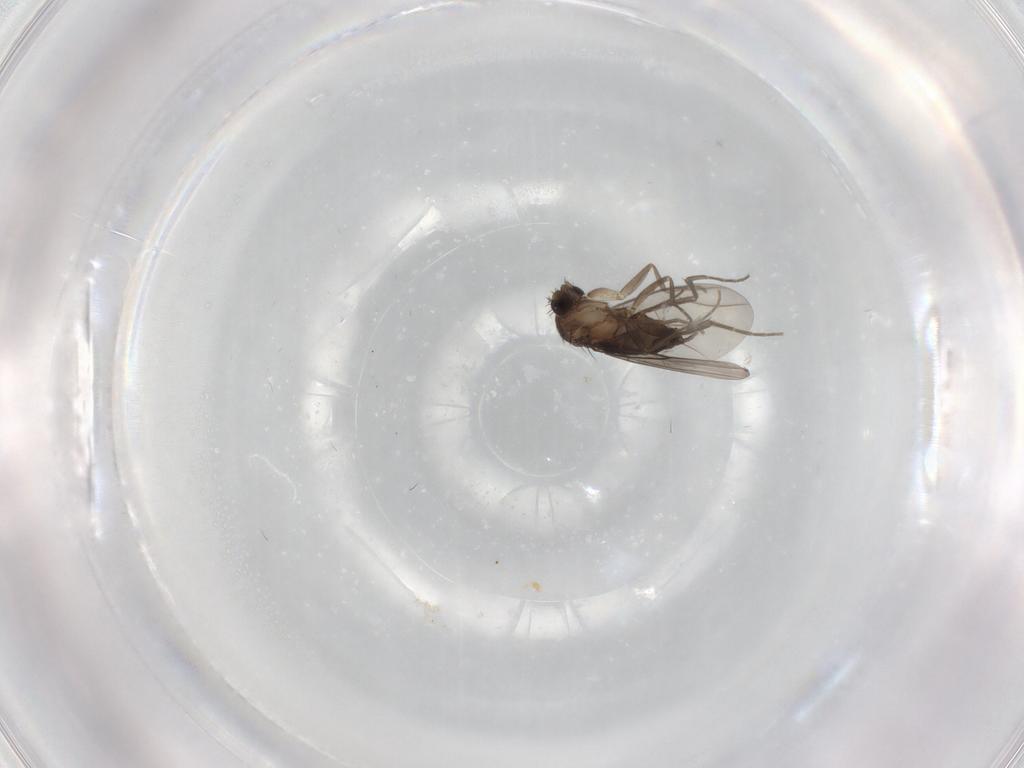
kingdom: Animalia
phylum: Arthropoda
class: Insecta
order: Diptera
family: Phoridae
